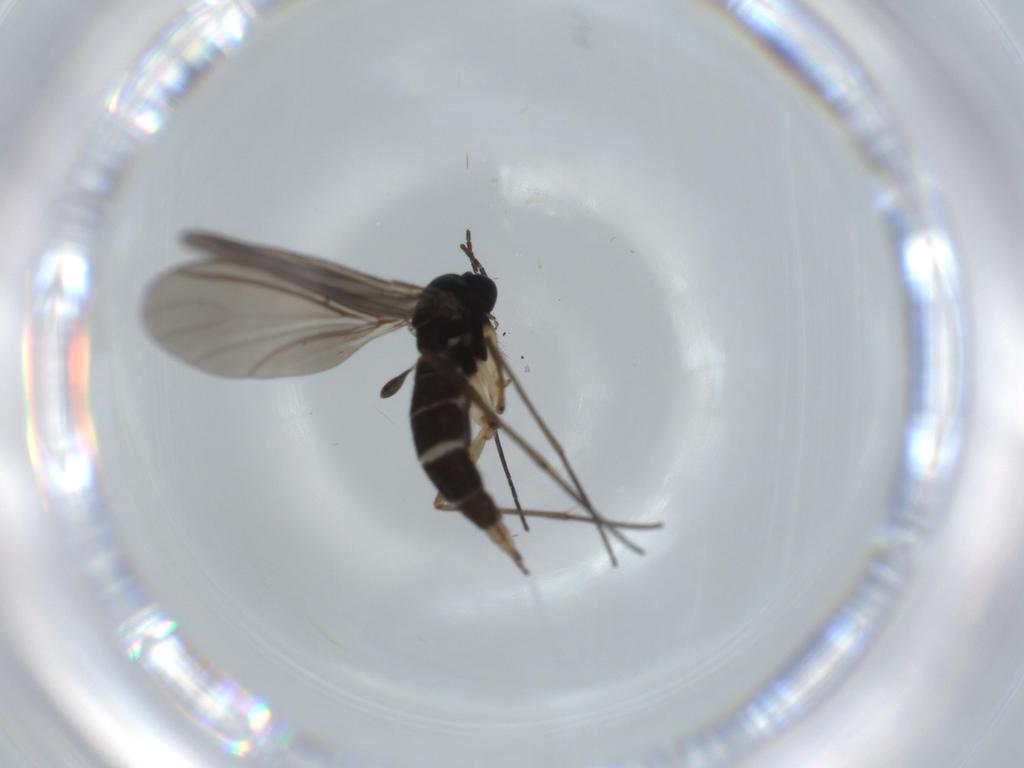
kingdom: Animalia
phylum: Arthropoda
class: Insecta
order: Diptera
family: Sciaridae
